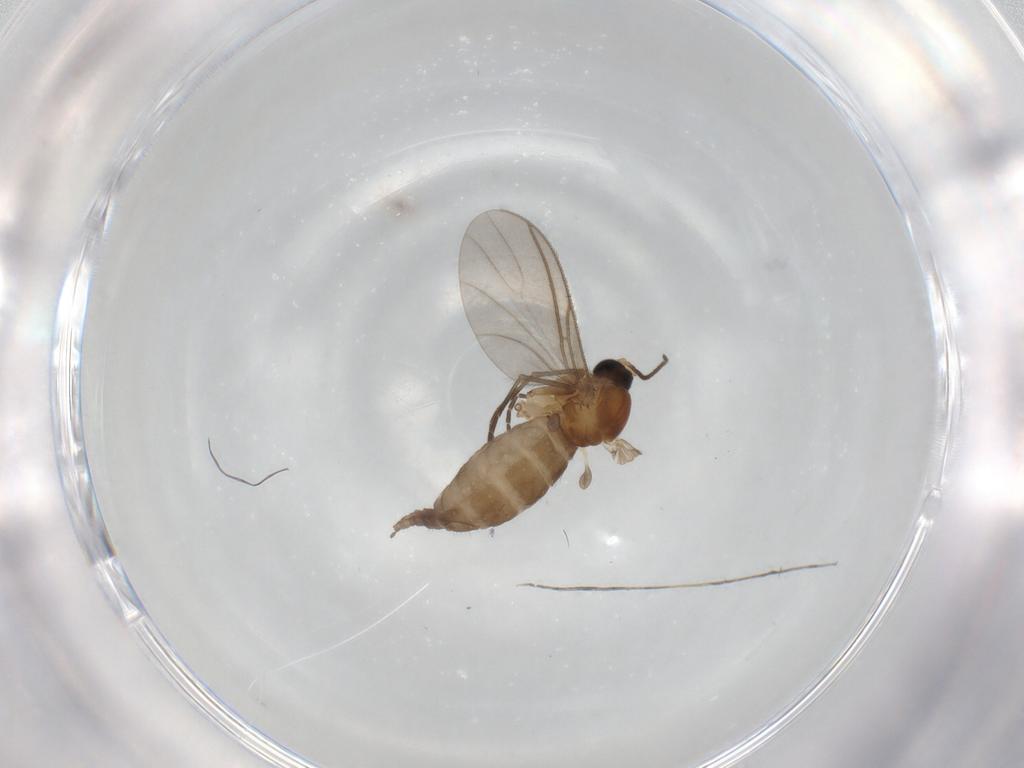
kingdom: Animalia
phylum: Arthropoda
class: Insecta
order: Diptera
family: Sciaridae
